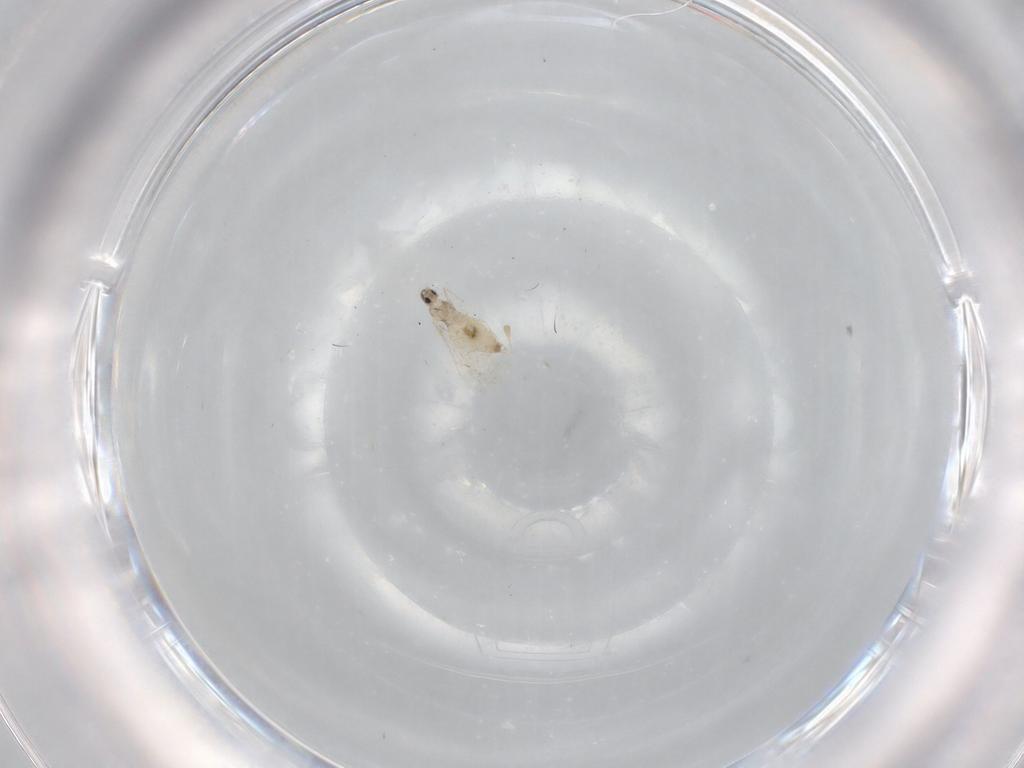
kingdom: Animalia
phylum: Arthropoda
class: Insecta
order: Diptera
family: Cecidomyiidae
